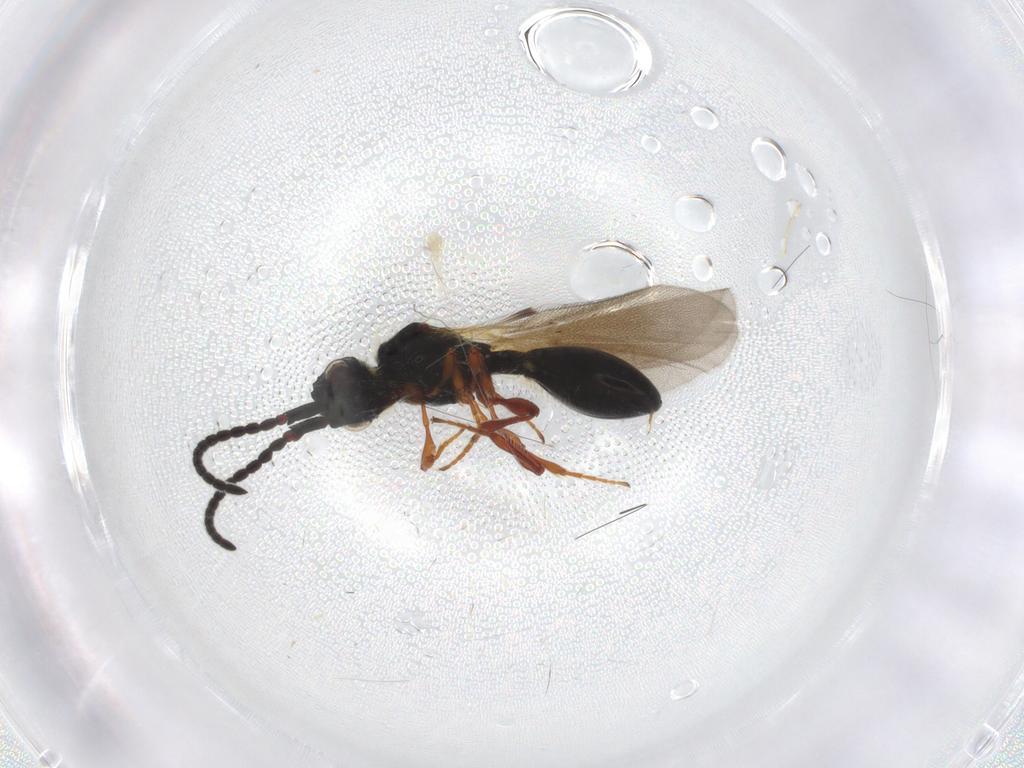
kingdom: Animalia
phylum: Arthropoda
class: Insecta
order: Hymenoptera
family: Diapriidae
